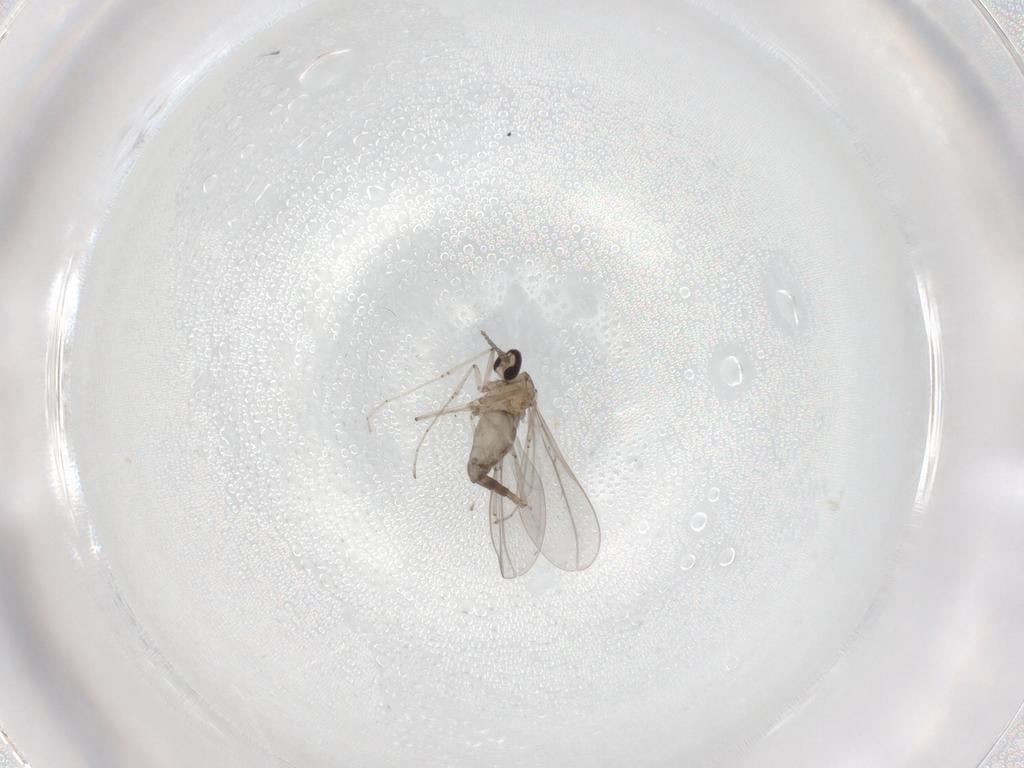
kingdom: Animalia
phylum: Arthropoda
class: Insecta
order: Diptera
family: Sciaridae
